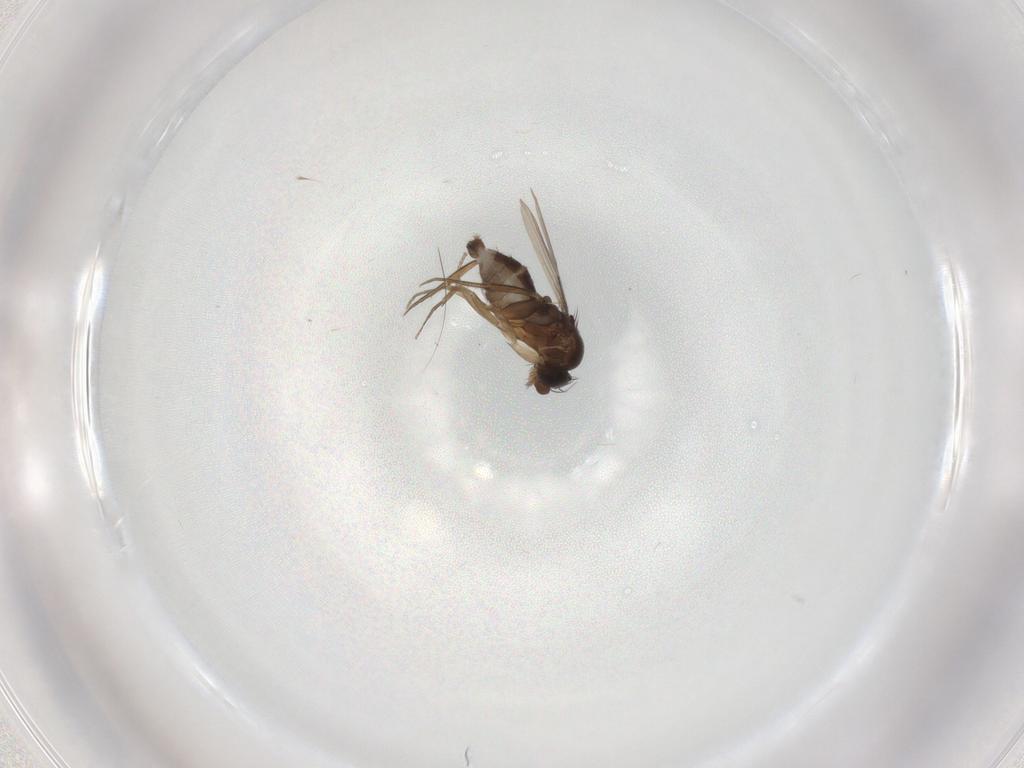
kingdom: Animalia
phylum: Arthropoda
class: Insecta
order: Diptera
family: Phoridae
